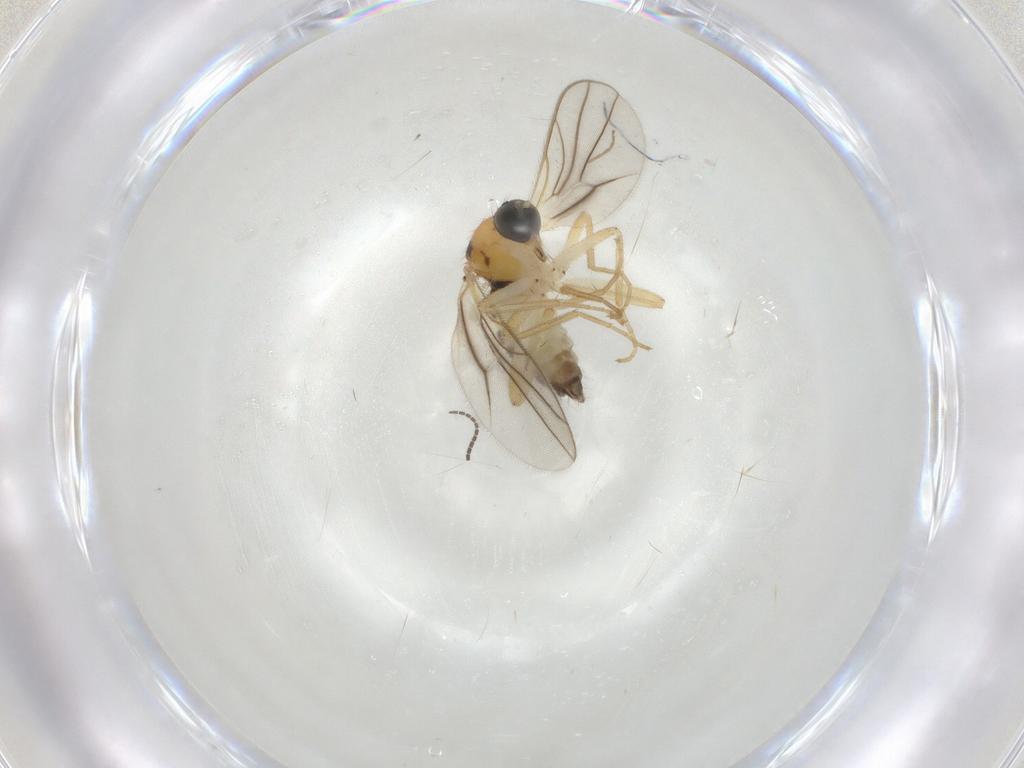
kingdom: Animalia
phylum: Arthropoda
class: Insecta
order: Diptera
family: Hybotidae
